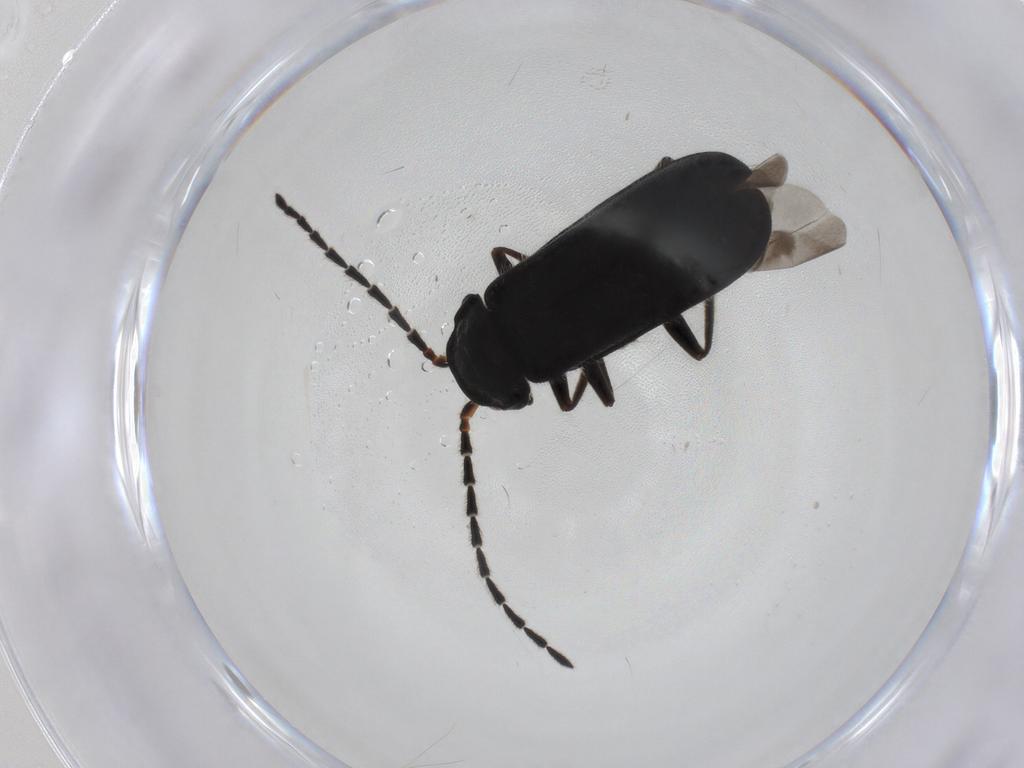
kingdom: Animalia
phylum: Arthropoda
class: Insecta
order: Coleoptera
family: Cantharidae
